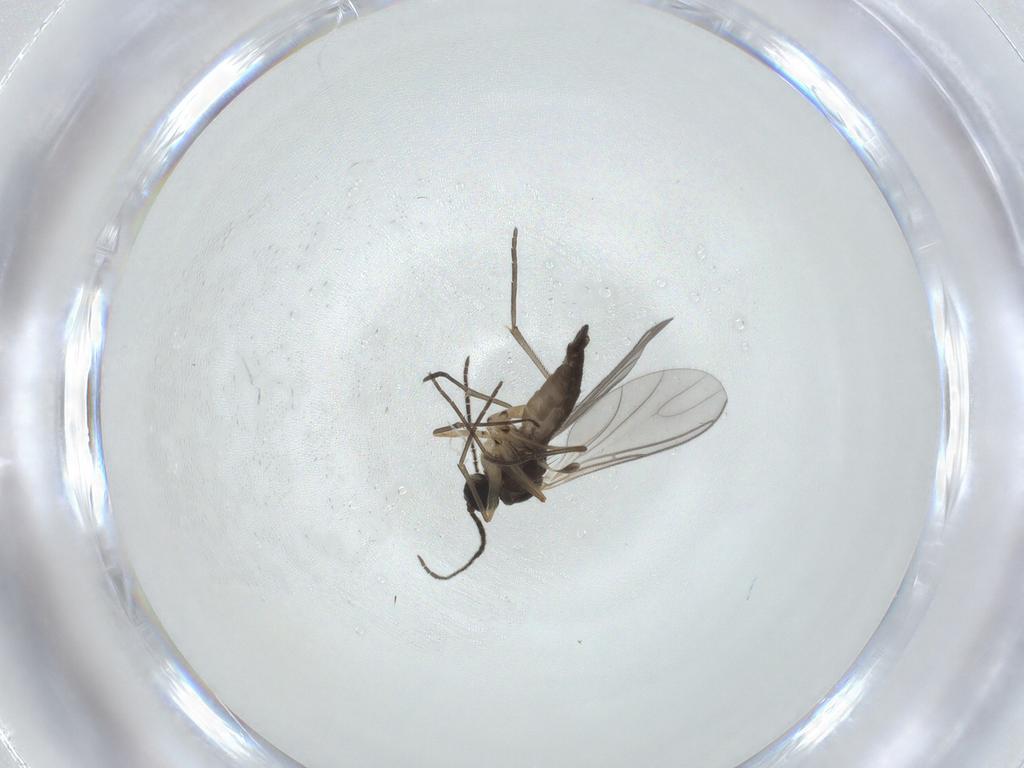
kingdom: Animalia
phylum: Arthropoda
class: Insecta
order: Diptera
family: Sciaridae
